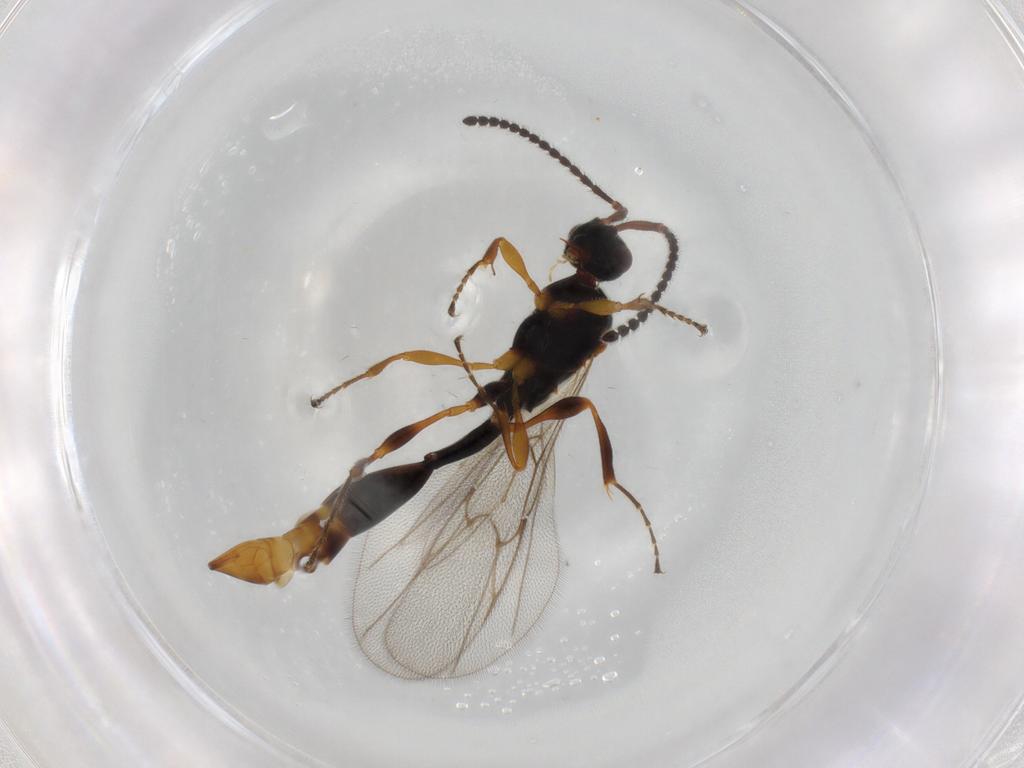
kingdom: Animalia
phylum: Arthropoda
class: Insecta
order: Hymenoptera
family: Diapriidae
